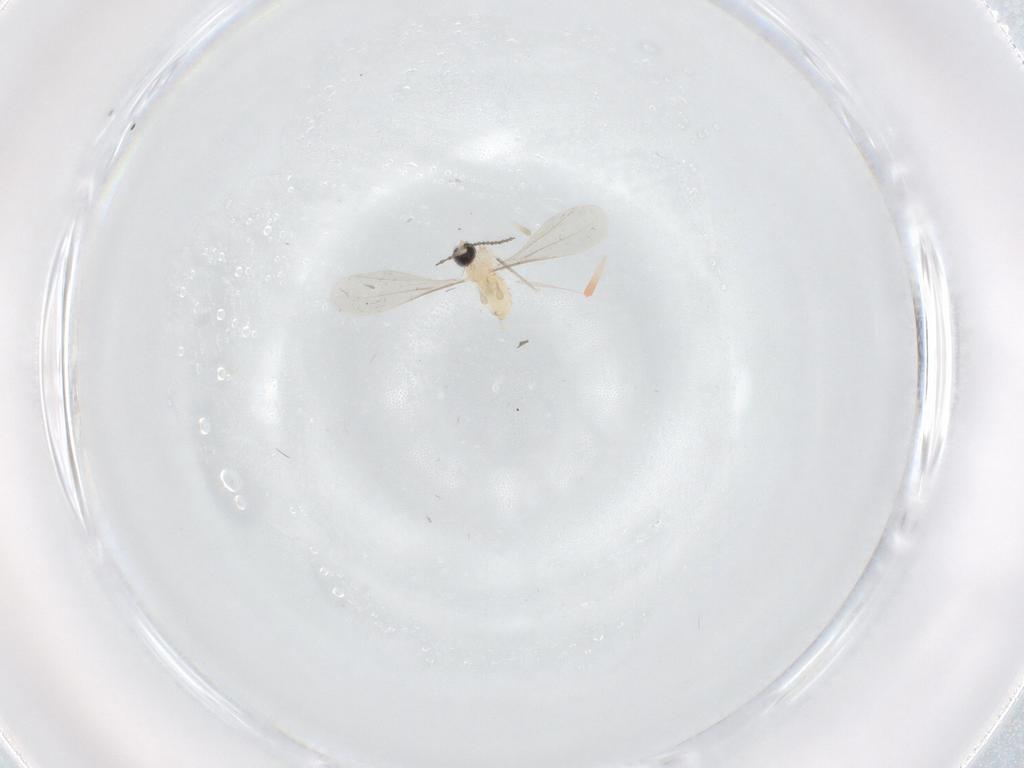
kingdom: Animalia
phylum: Arthropoda
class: Insecta
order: Diptera
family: Cecidomyiidae
